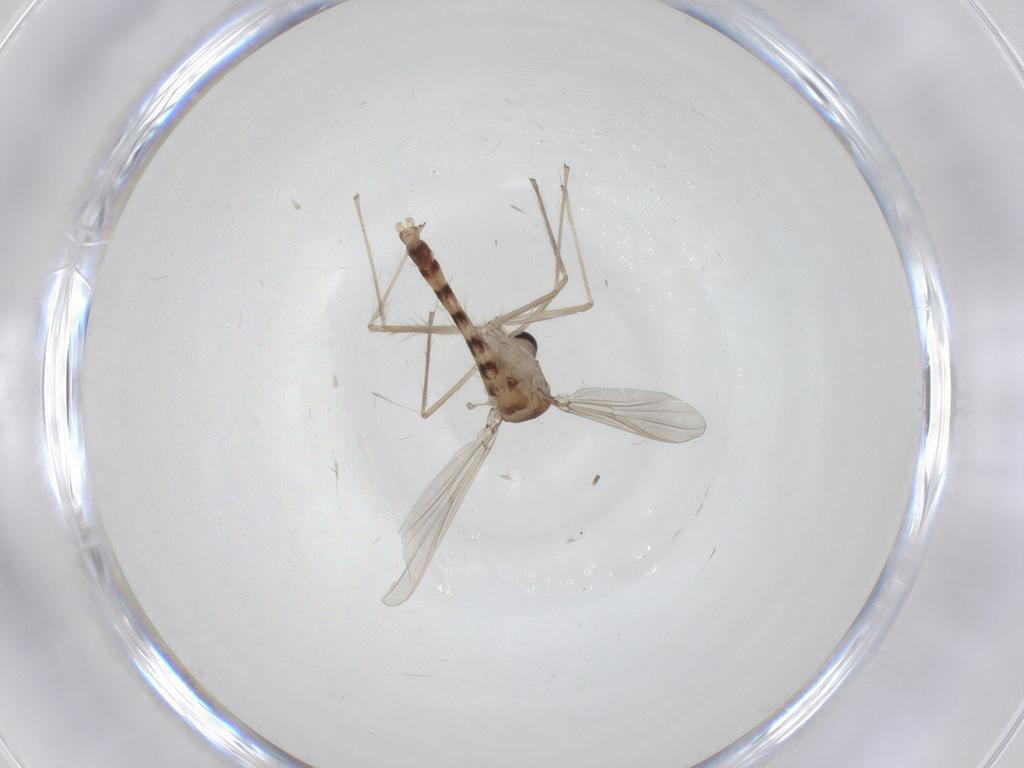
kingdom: Animalia
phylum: Arthropoda
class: Insecta
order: Diptera
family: Chironomidae
